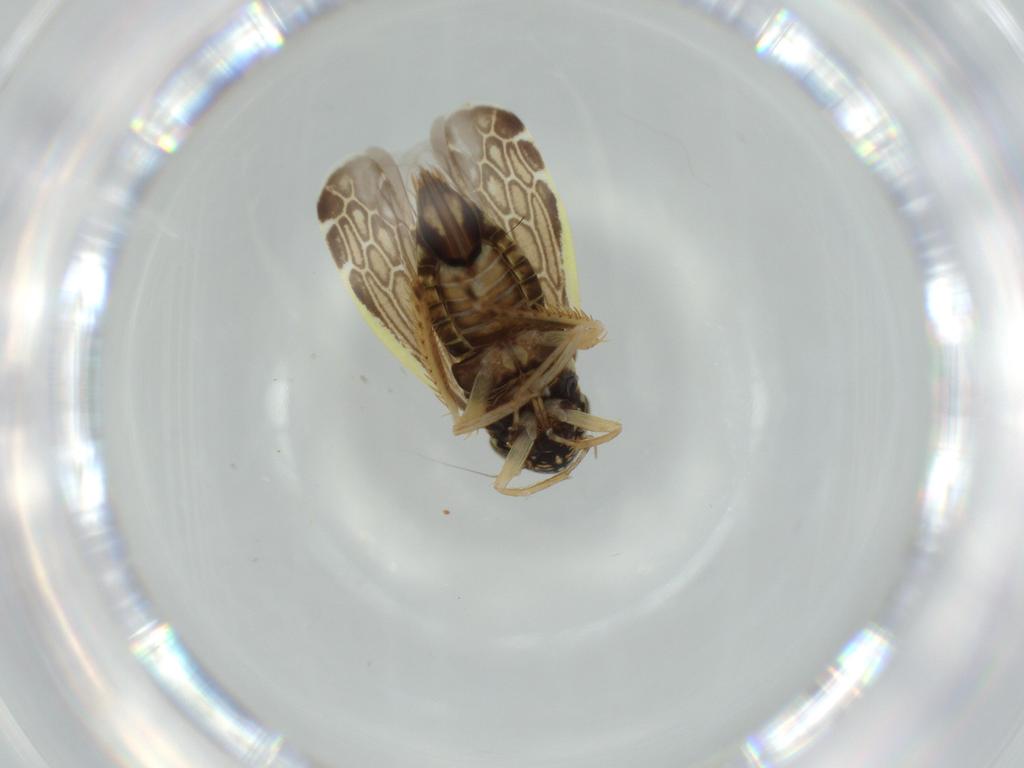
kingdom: Animalia
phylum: Arthropoda
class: Insecta
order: Hemiptera
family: Cicadellidae
